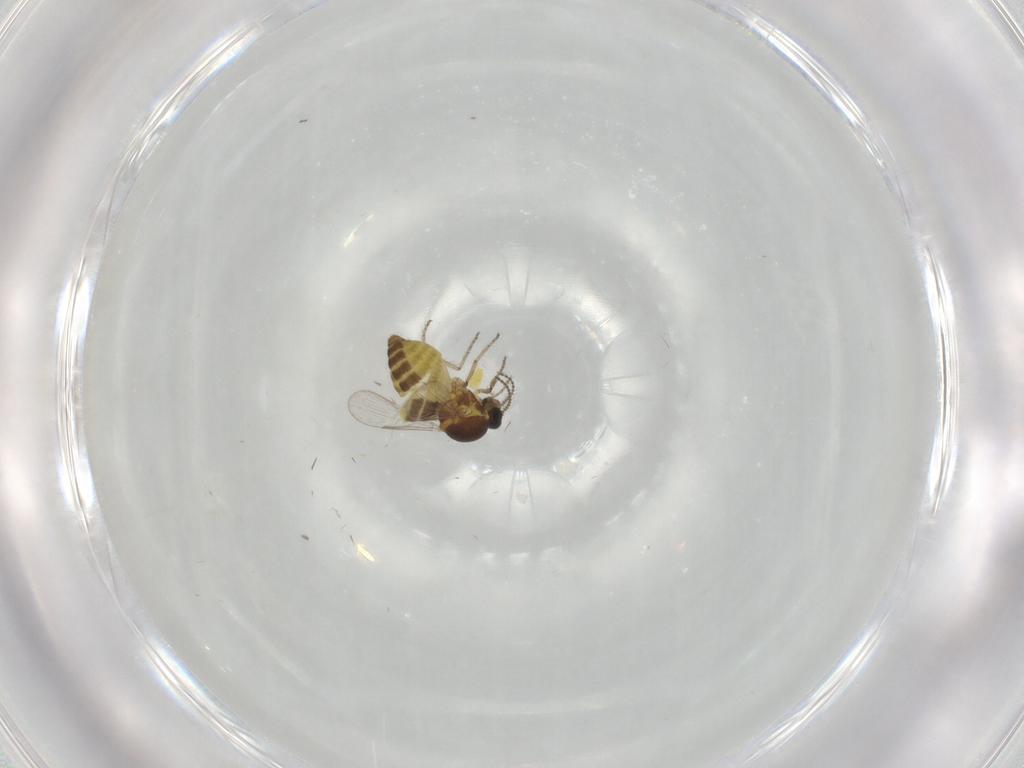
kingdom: Animalia
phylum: Arthropoda
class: Insecta
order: Diptera
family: Ceratopogonidae
